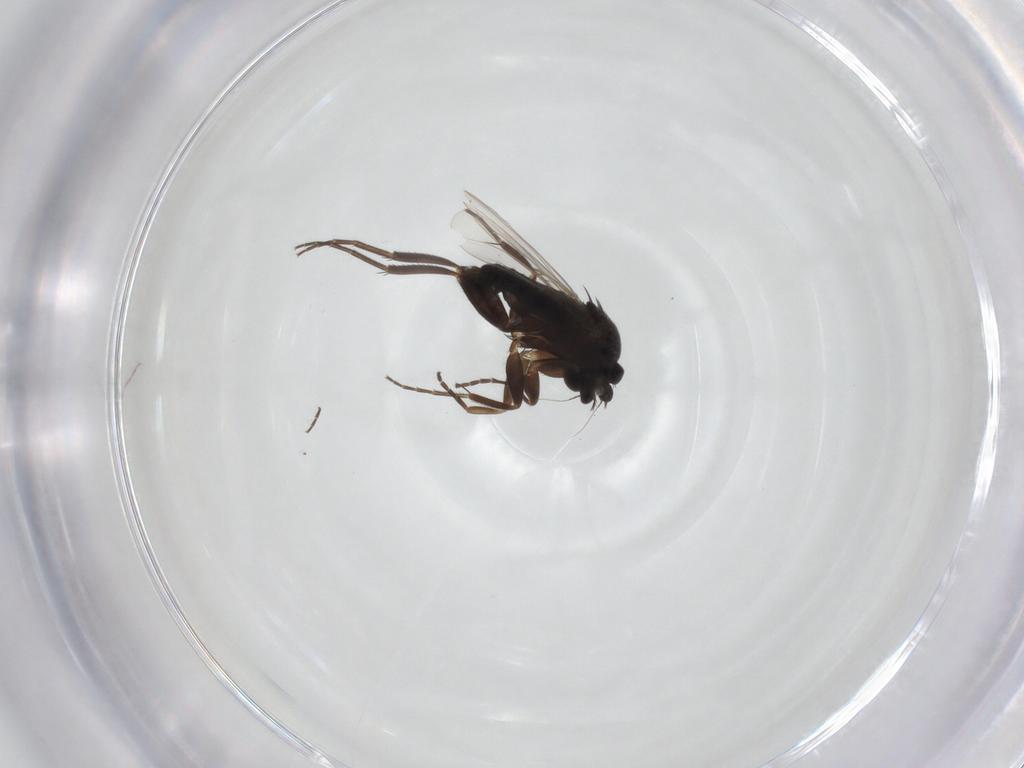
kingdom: Animalia
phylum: Arthropoda
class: Insecta
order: Diptera
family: Phoridae
